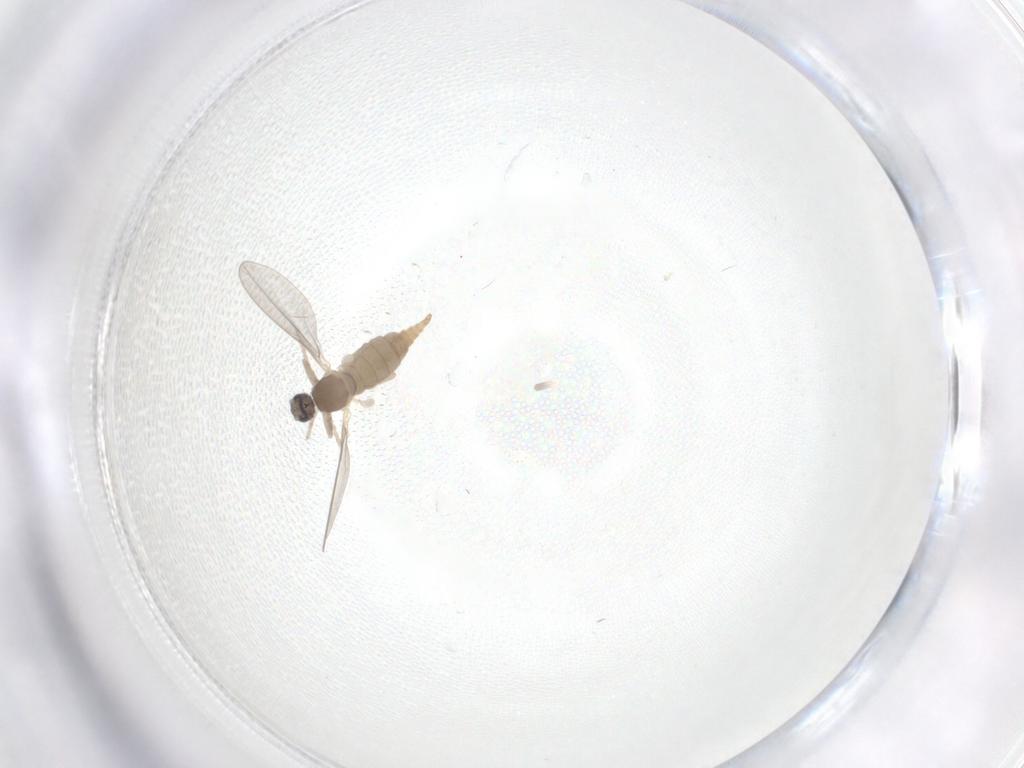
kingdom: Animalia
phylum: Arthropoda
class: Insecta
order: Diptera
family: Cecidomyiidae
